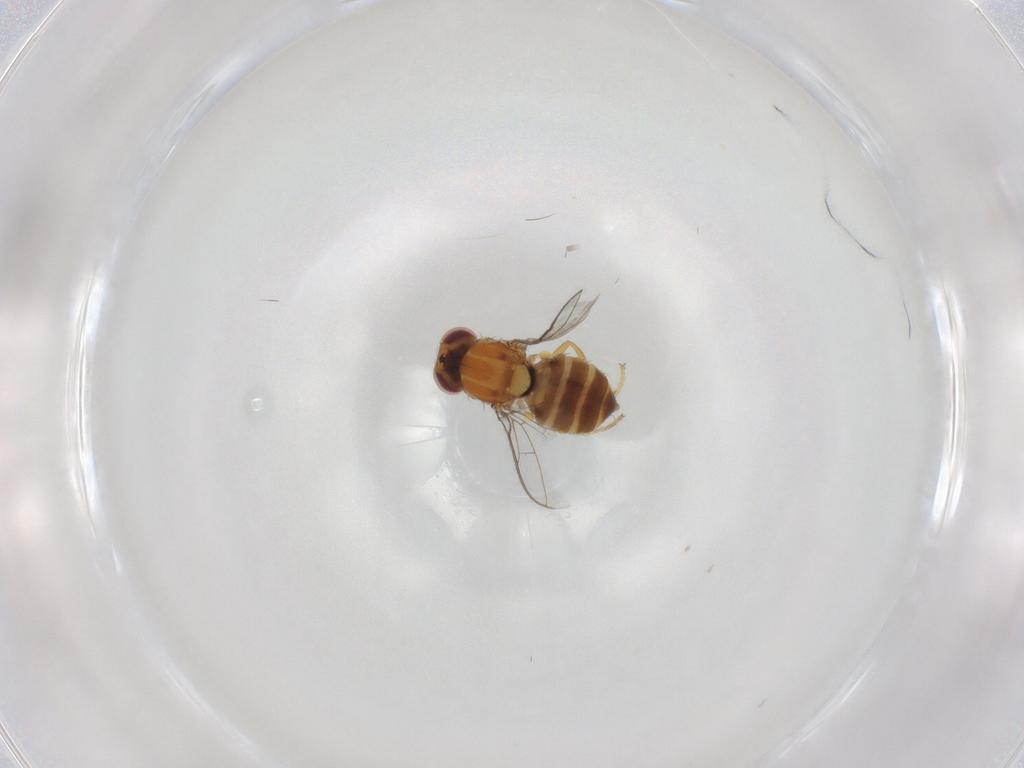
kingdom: Animalia
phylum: Arthropoda
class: Insecta
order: Diptera
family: Chloropidae
